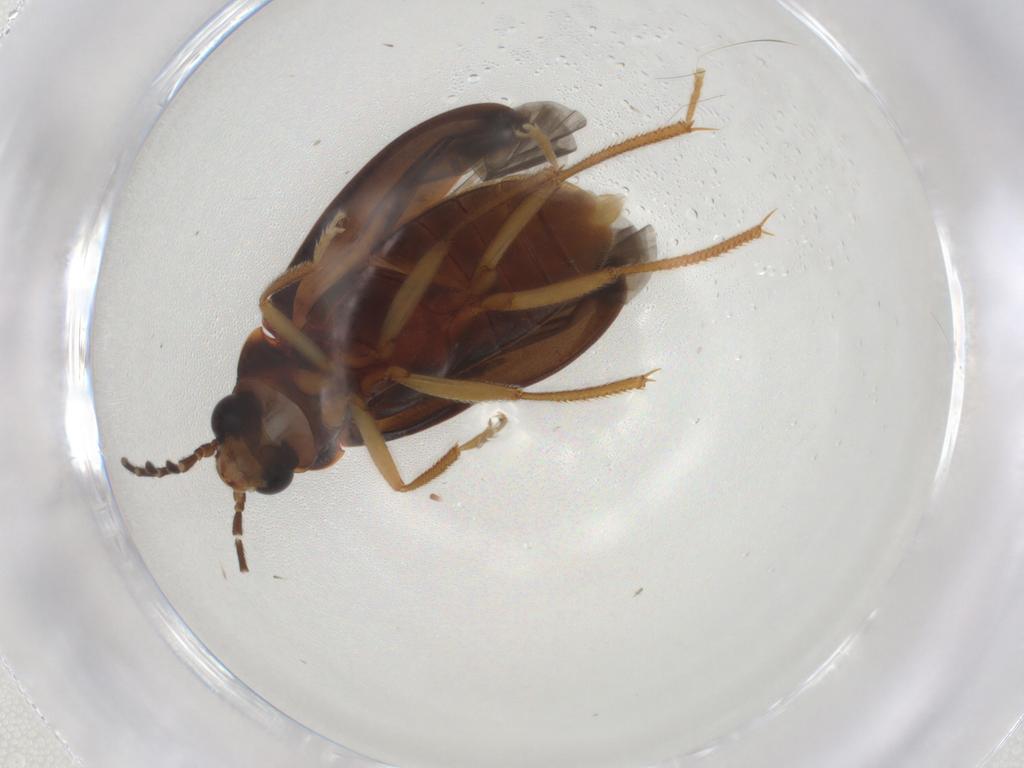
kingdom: Animalia
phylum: Arthropoda
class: Insecta
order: Coleoptera
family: Ptilodactylidae
